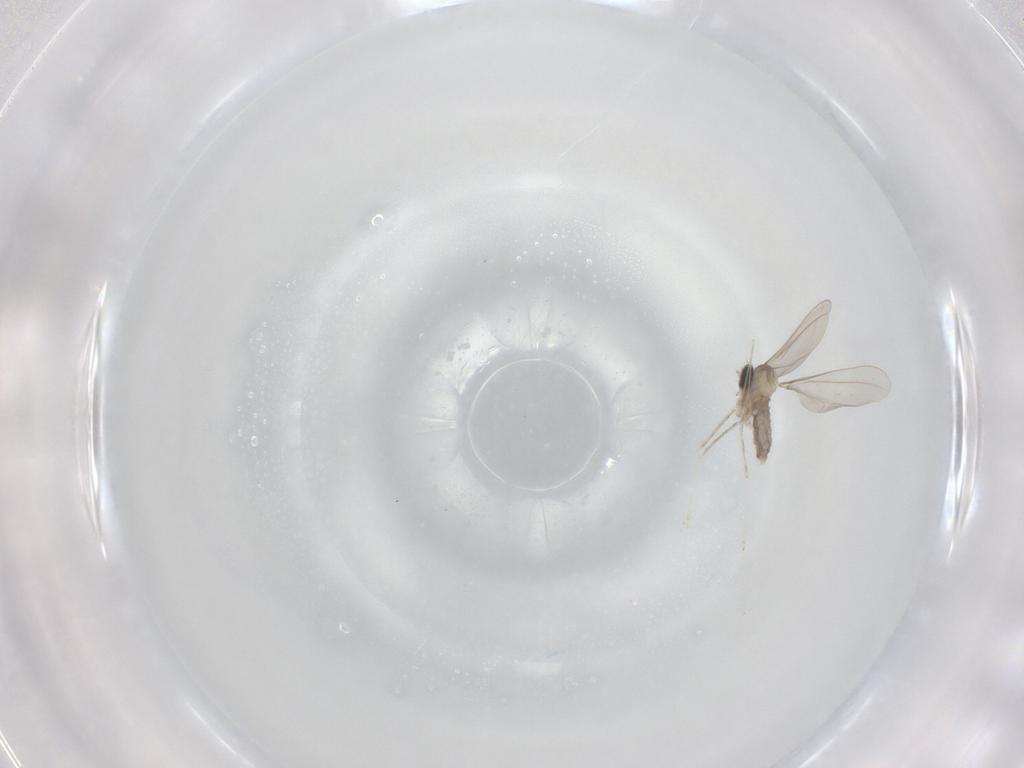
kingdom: Animalia
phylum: Arthropoda
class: Insecta
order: Diptera
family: Cecidomyiidae
